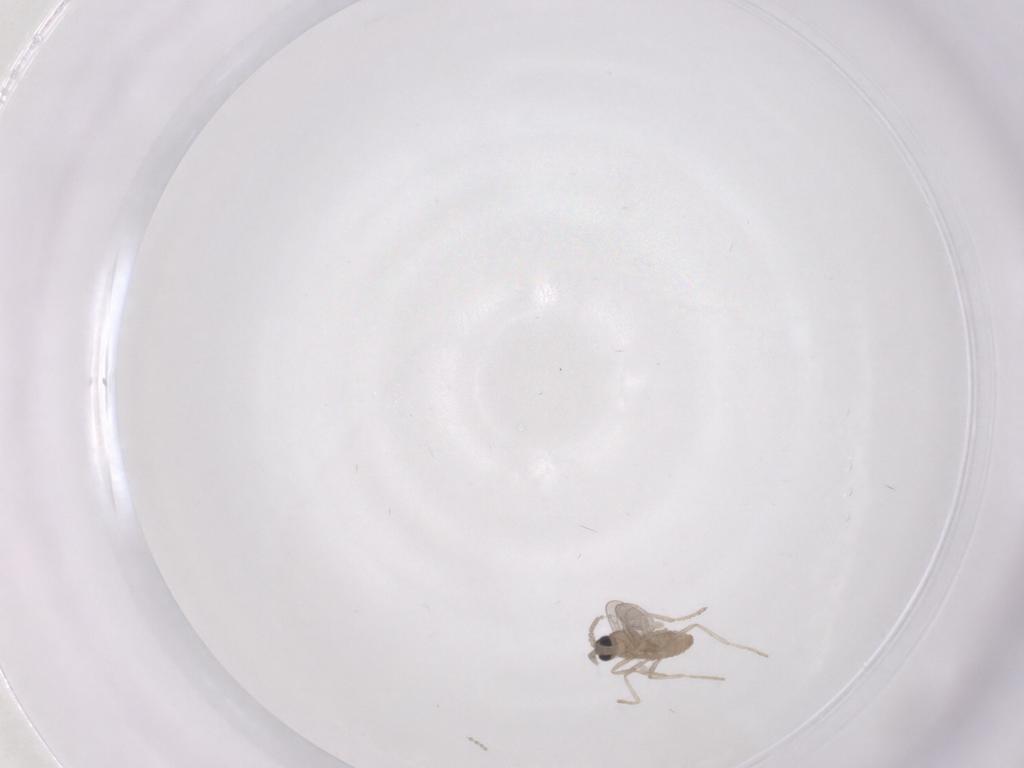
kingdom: Animalia
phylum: Arthropoda
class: Insecta
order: Diptera
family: Cecidomyiidae
